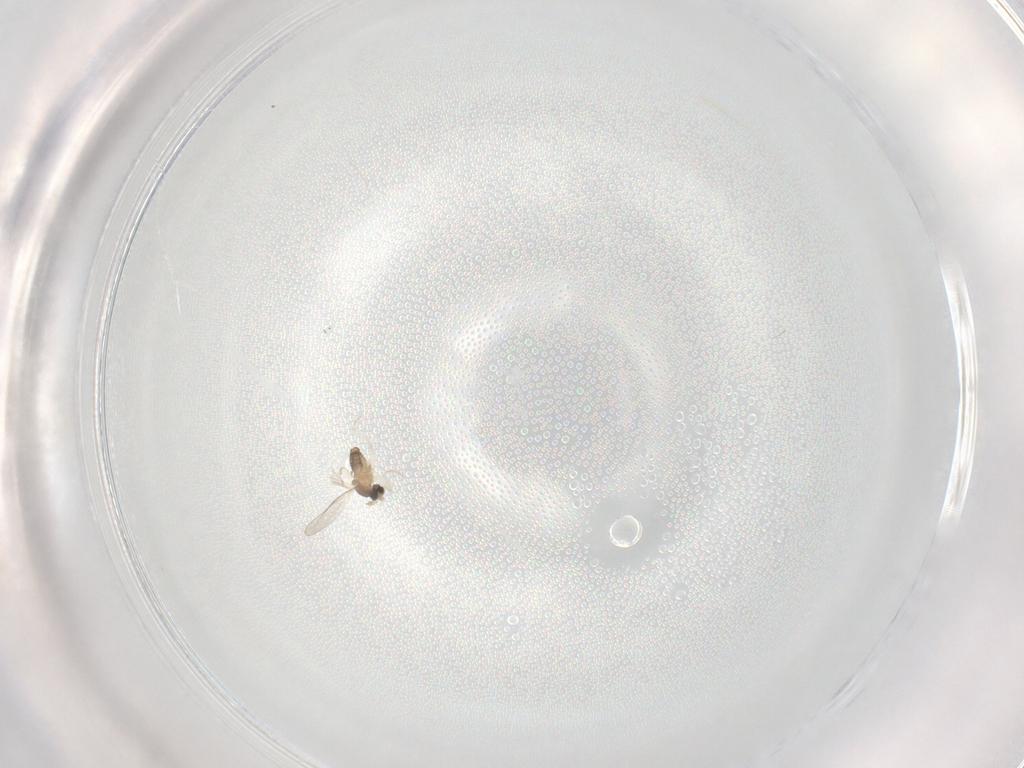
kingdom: Animalia
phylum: Arthropoda
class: Insecta
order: Diptera
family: Cecidomyiidae
